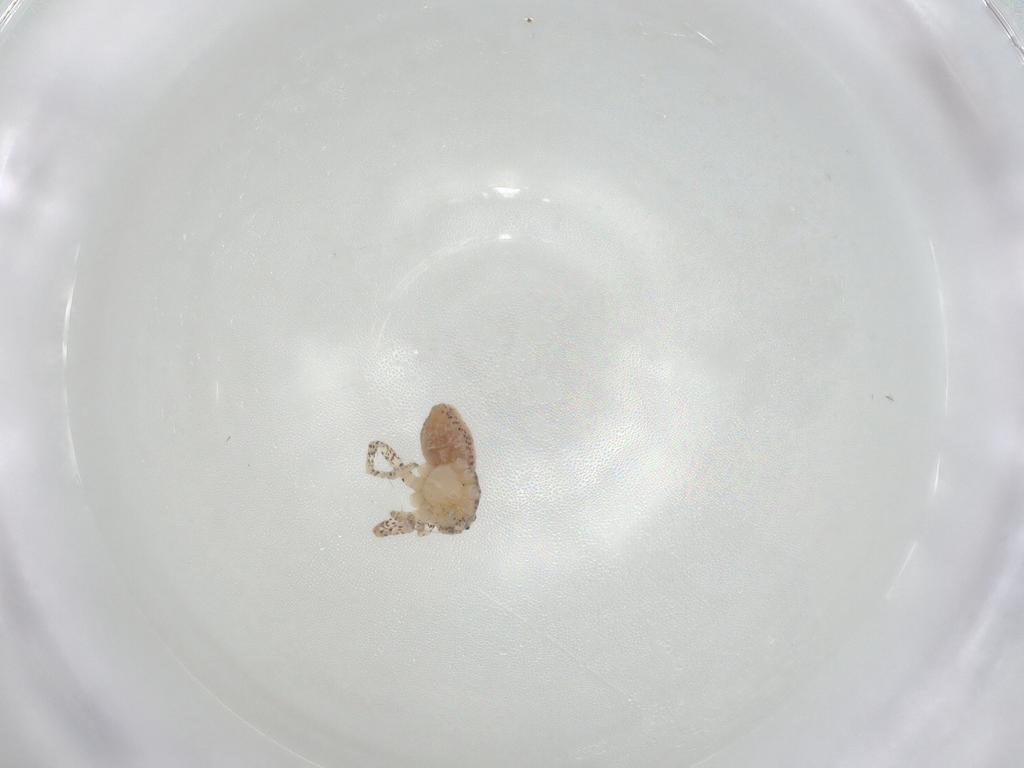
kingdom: Animalia
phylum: Arthropoda
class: Arachnida
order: Araneae
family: Philodromidae
